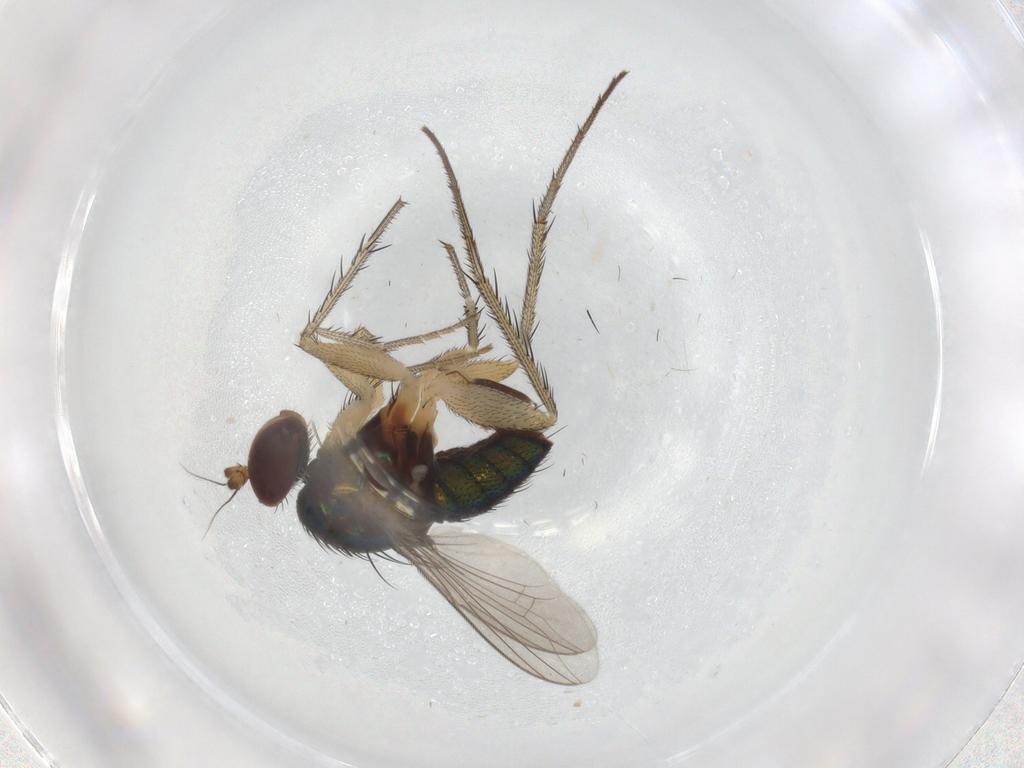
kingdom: Animalia
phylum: Arthropoda
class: Insecta
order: Diptera
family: Dolichopodidae
